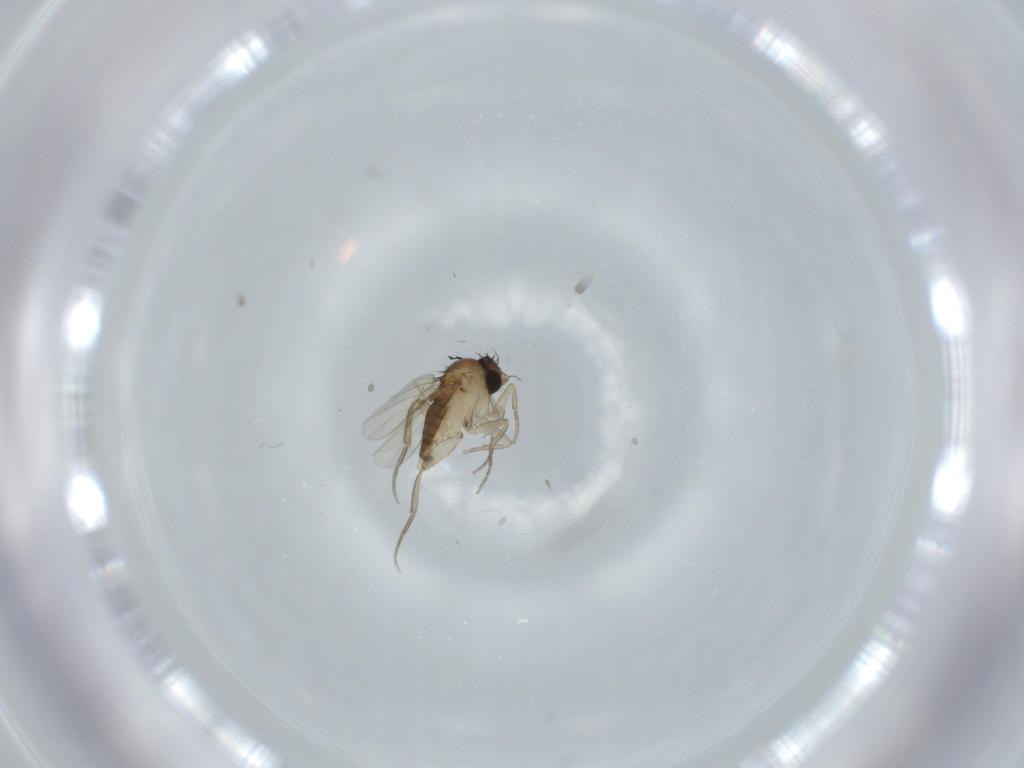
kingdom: Animalia
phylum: Arthropoda
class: Insecta
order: Diptera
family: Phoridae
